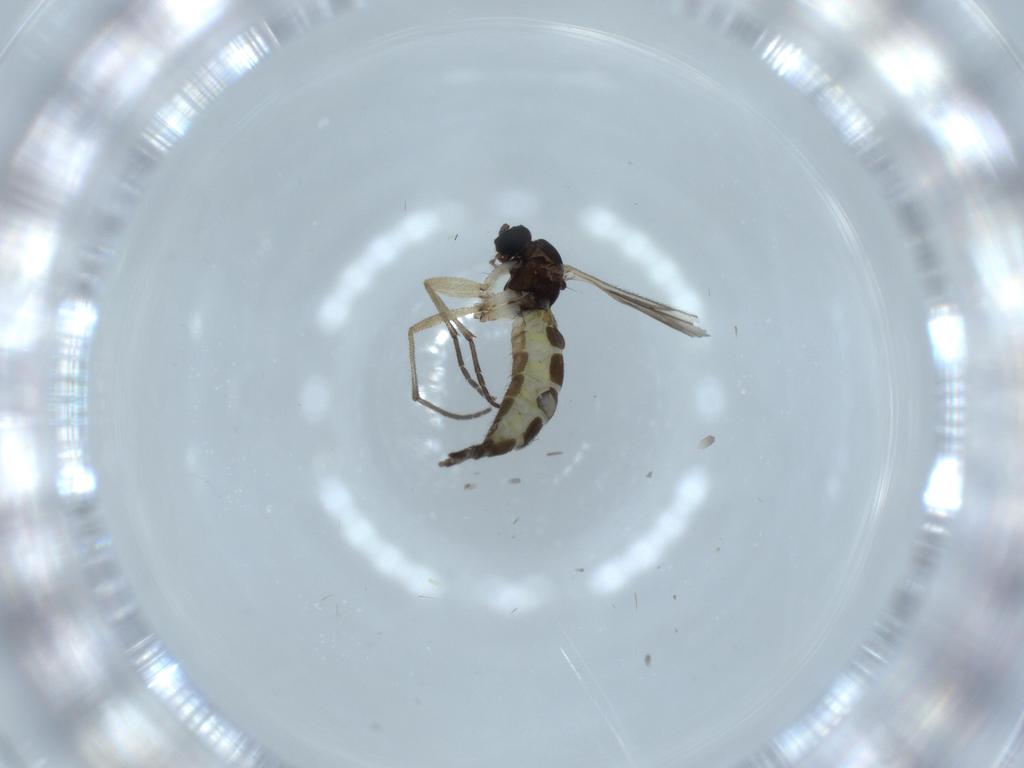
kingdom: Animalia
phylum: Arthropoda
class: Insecta
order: Diptera
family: Sciaridae
